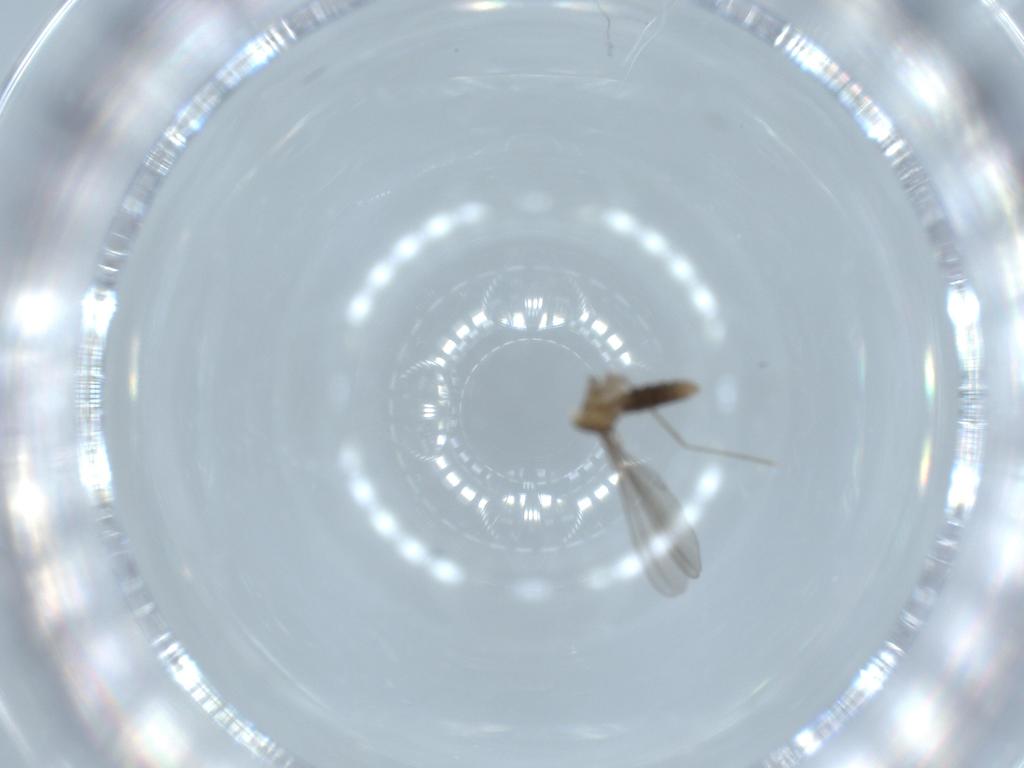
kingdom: Animalia
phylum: Arthropoda
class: Insecta
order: Diptera
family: Cecidomyiidae
